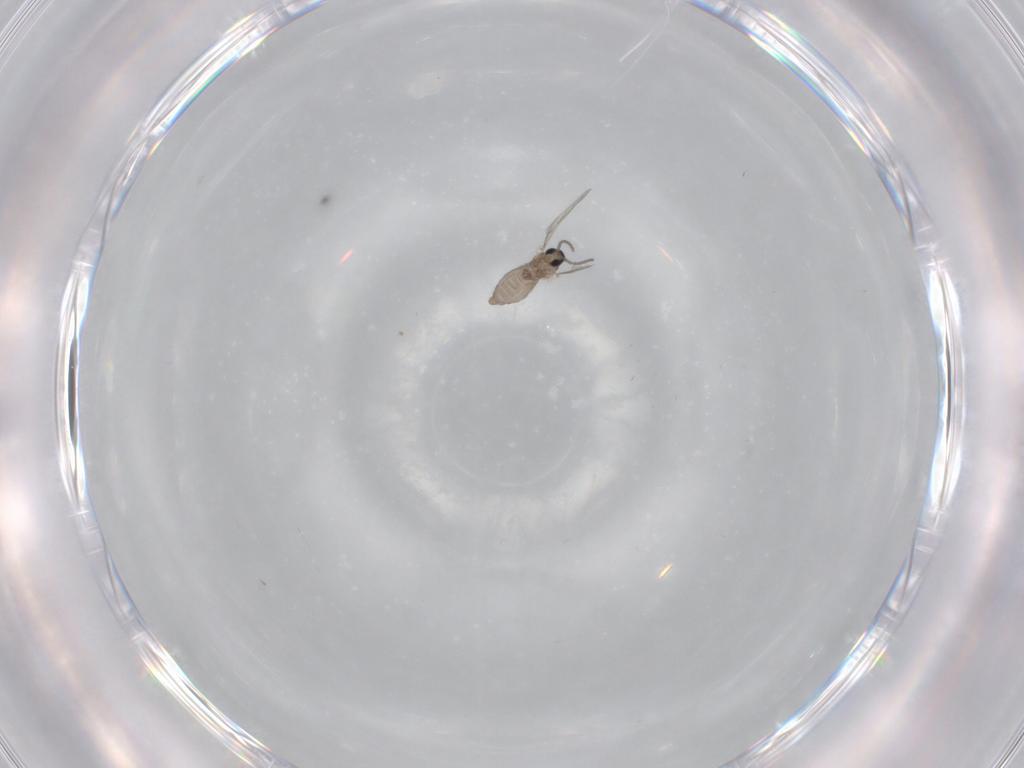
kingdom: Animalia
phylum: Arthropoda
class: Insecta
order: Diptera
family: Cecidomyiidae
